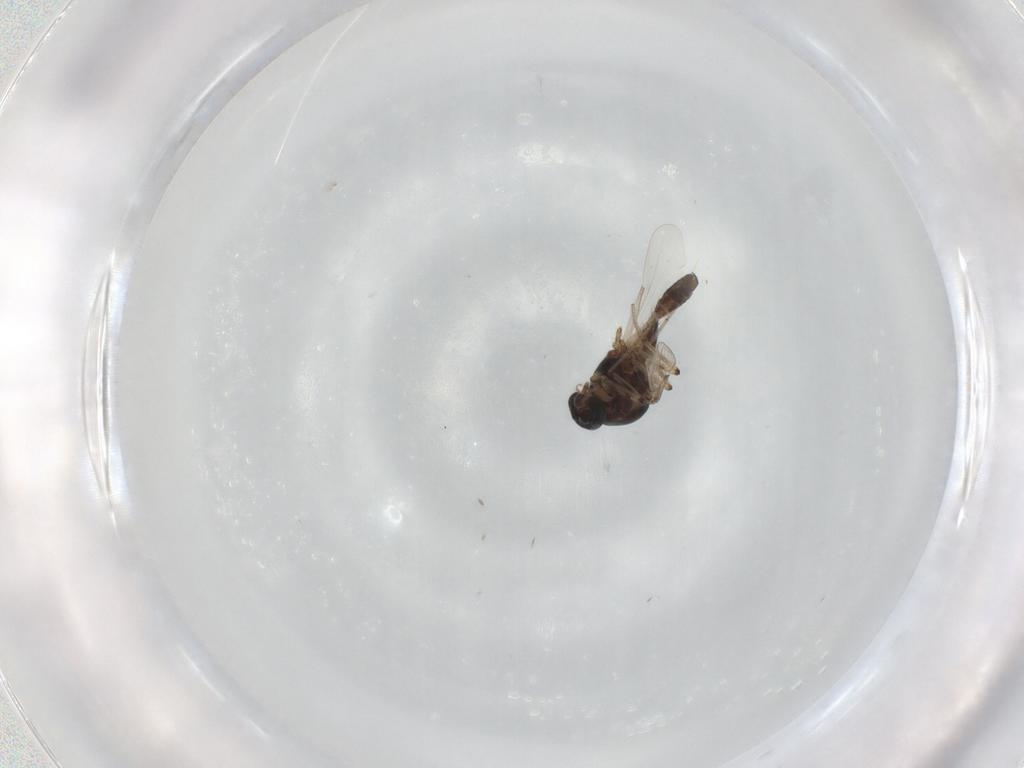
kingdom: Animalia
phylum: Arthropoda
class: Insecta
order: Diptera
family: Ceratopogonidae
